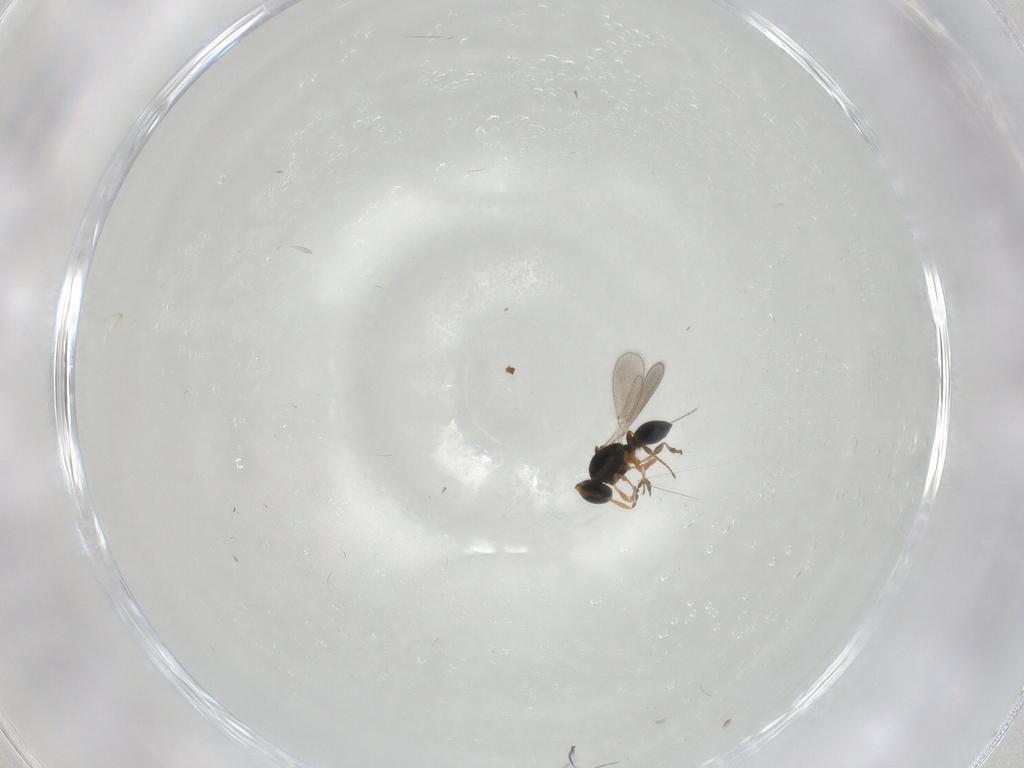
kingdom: Animalia
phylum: Arthropoda
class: Insecta
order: Hymenoptera
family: Platygastridae
